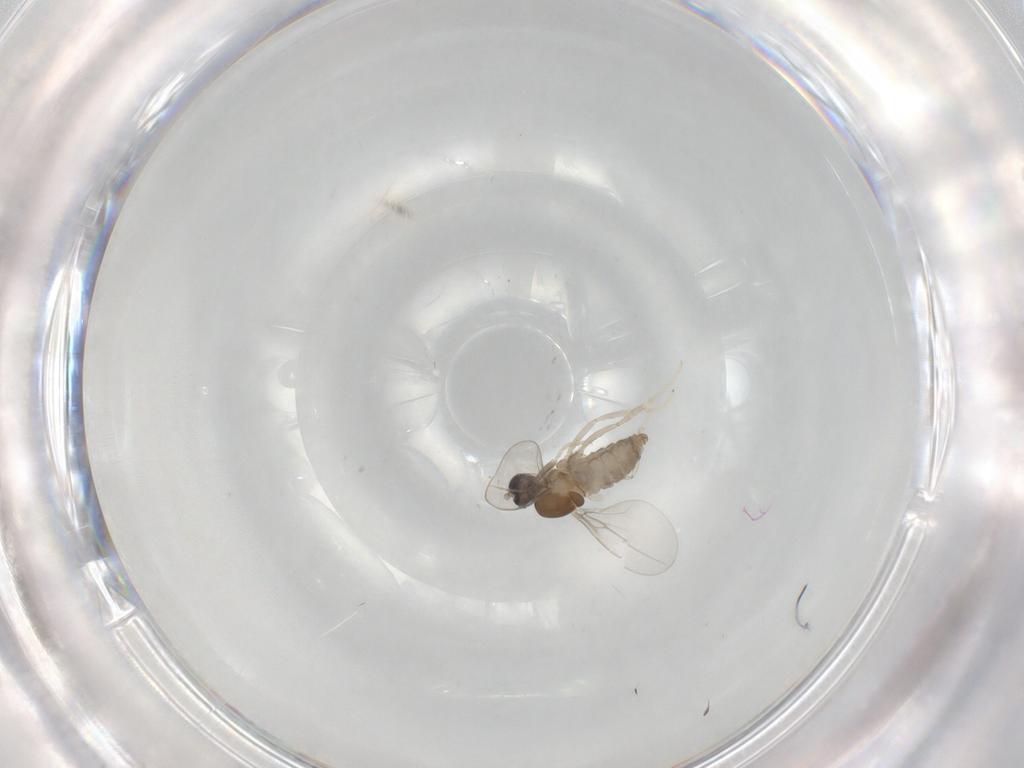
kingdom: Animalia
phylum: Arthropoda
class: Insecta
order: Diptera
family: Cecidomyiidae
